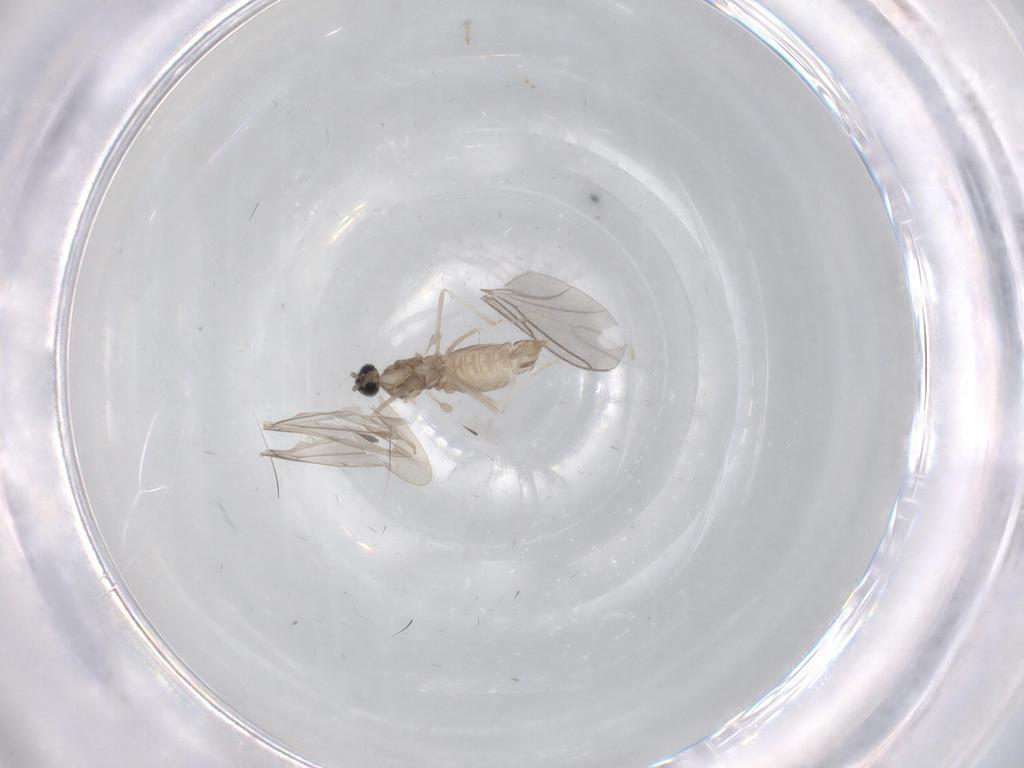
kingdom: Animalia
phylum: Arthropoda
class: Insecta
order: Diptera
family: Cecidomyiidae
